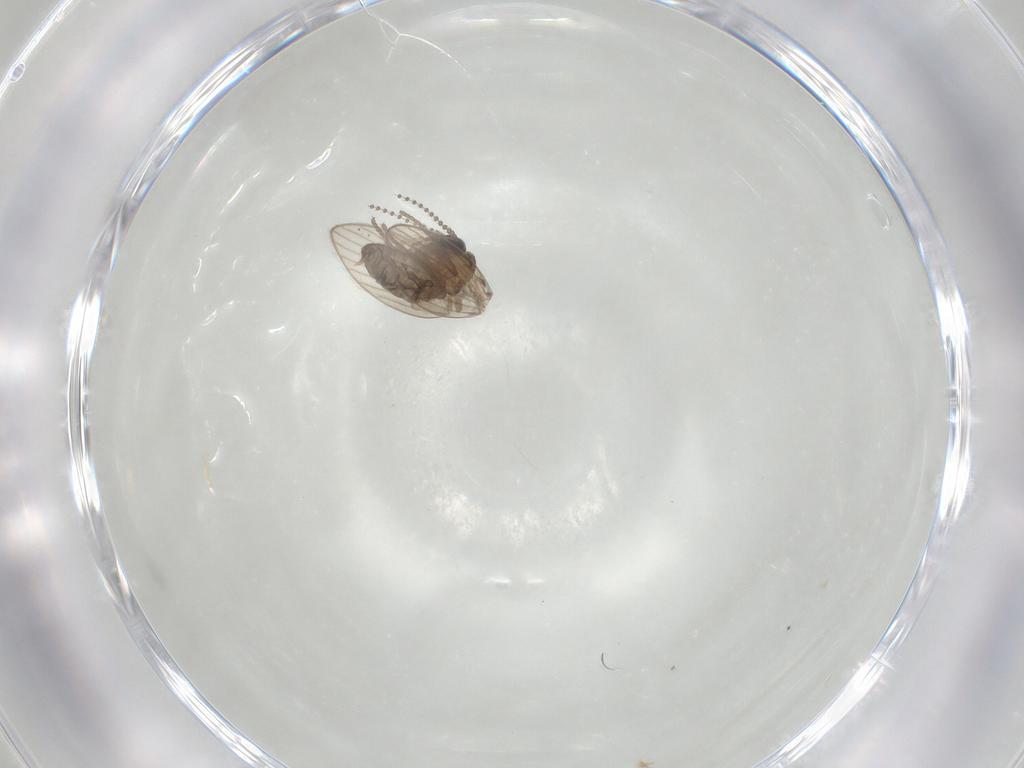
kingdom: Animalia
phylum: Arthropoda
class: Insecta
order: Diptera
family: Psychodidae
